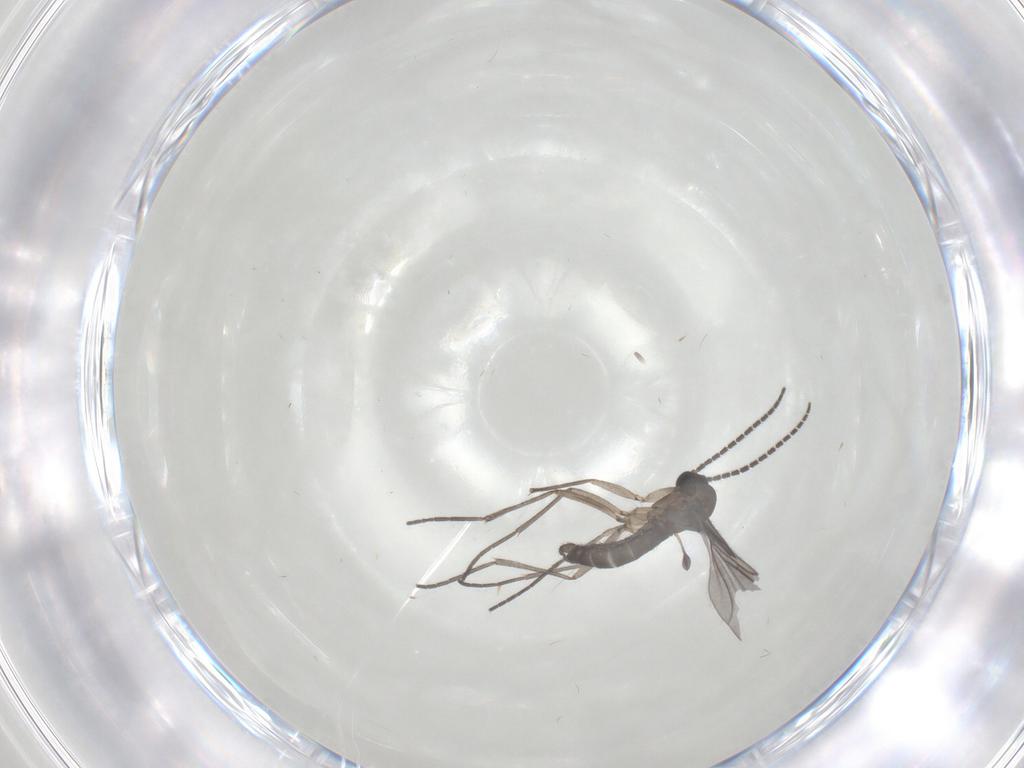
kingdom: Animalia
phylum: Arthropoda
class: Insecta
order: Diptera
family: Sciaridae
